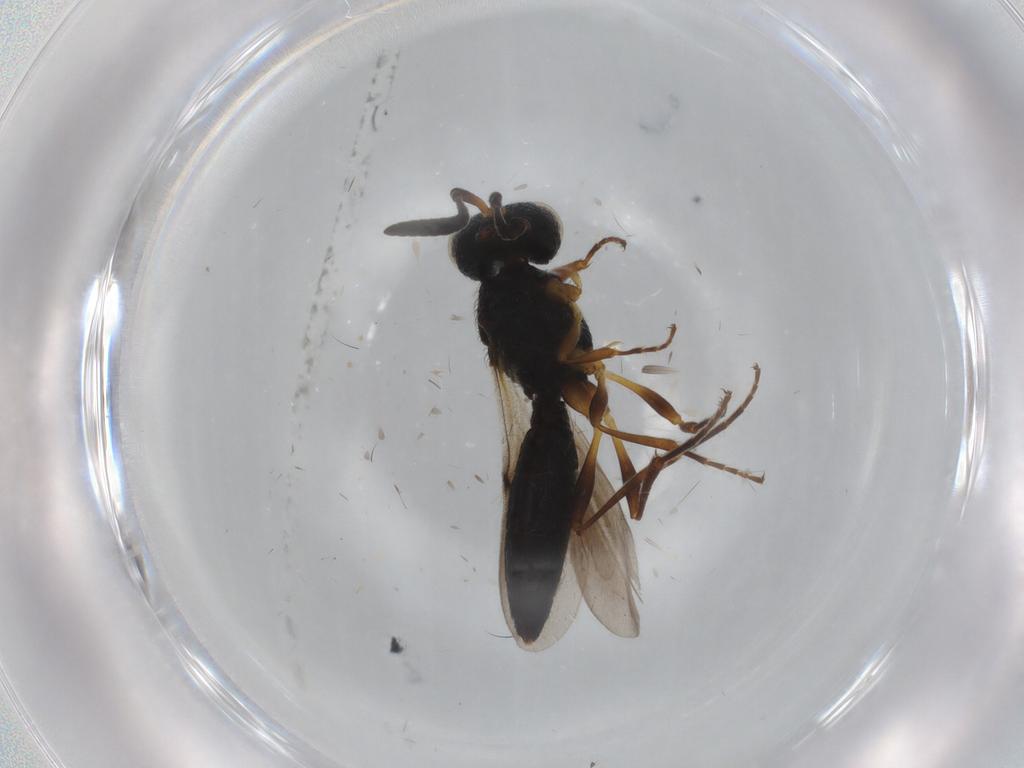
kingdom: Animalia
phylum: Arthropoda
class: Insecta
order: Hymenoptera
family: Scelionidae
